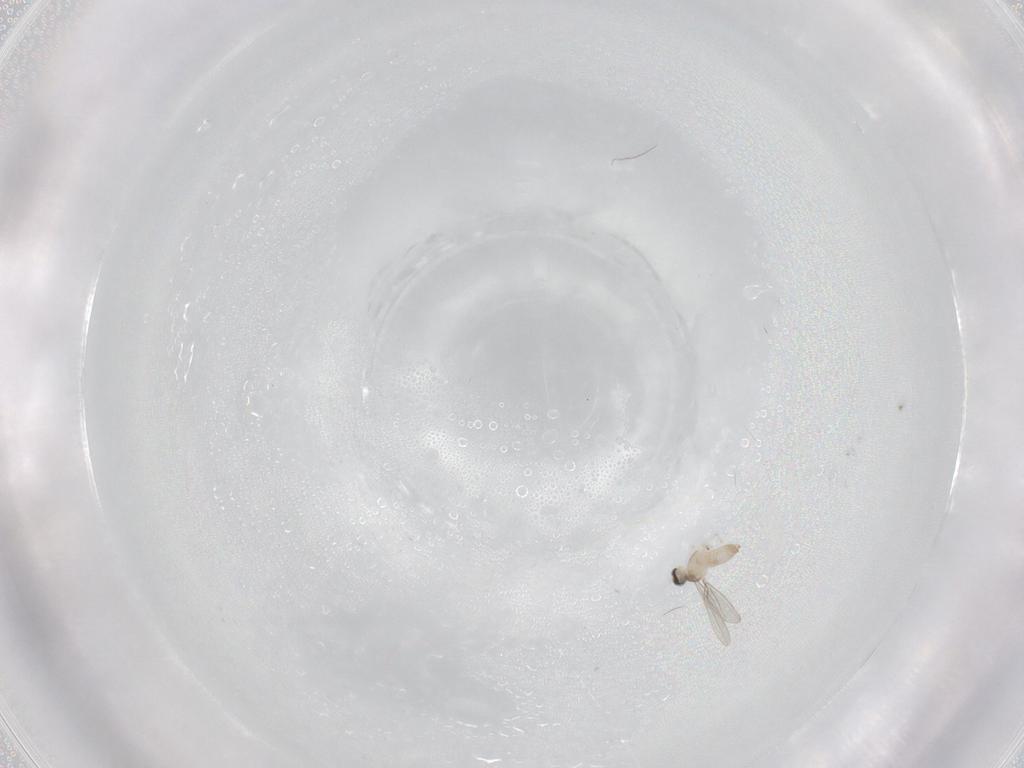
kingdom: Animalia
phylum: Arthropoda
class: Insecta
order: Diptera
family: Cecidomyiidae
